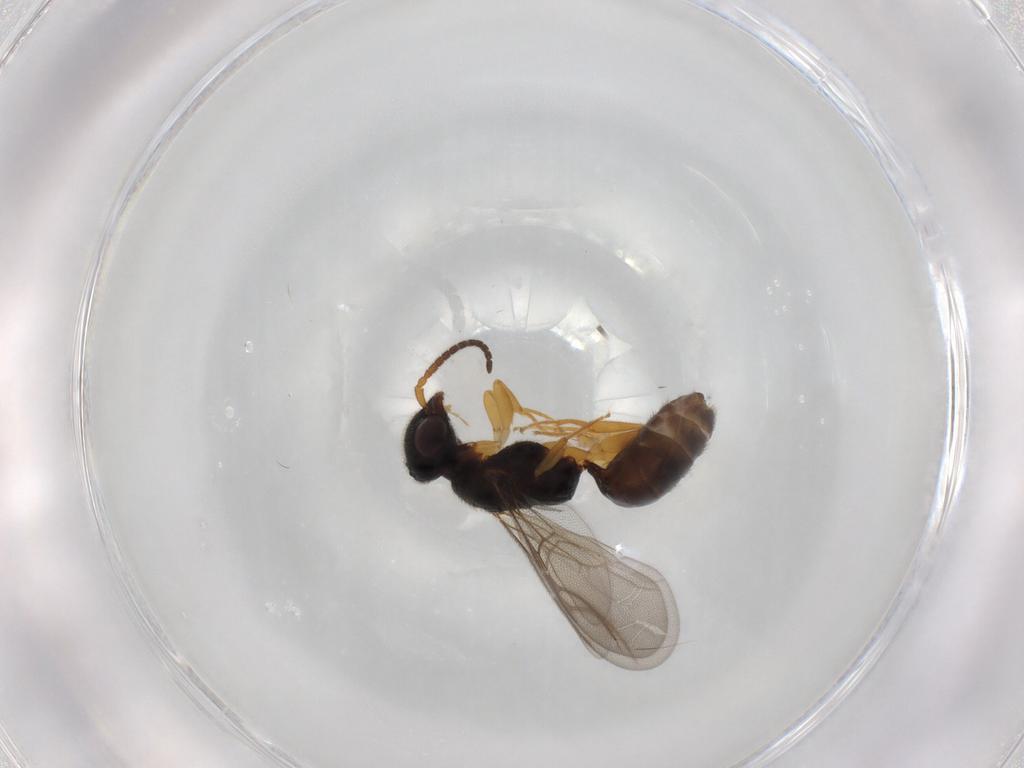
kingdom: Animalia
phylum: Arthropoda
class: Insecta
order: Hymenoptera
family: Bethylidae
